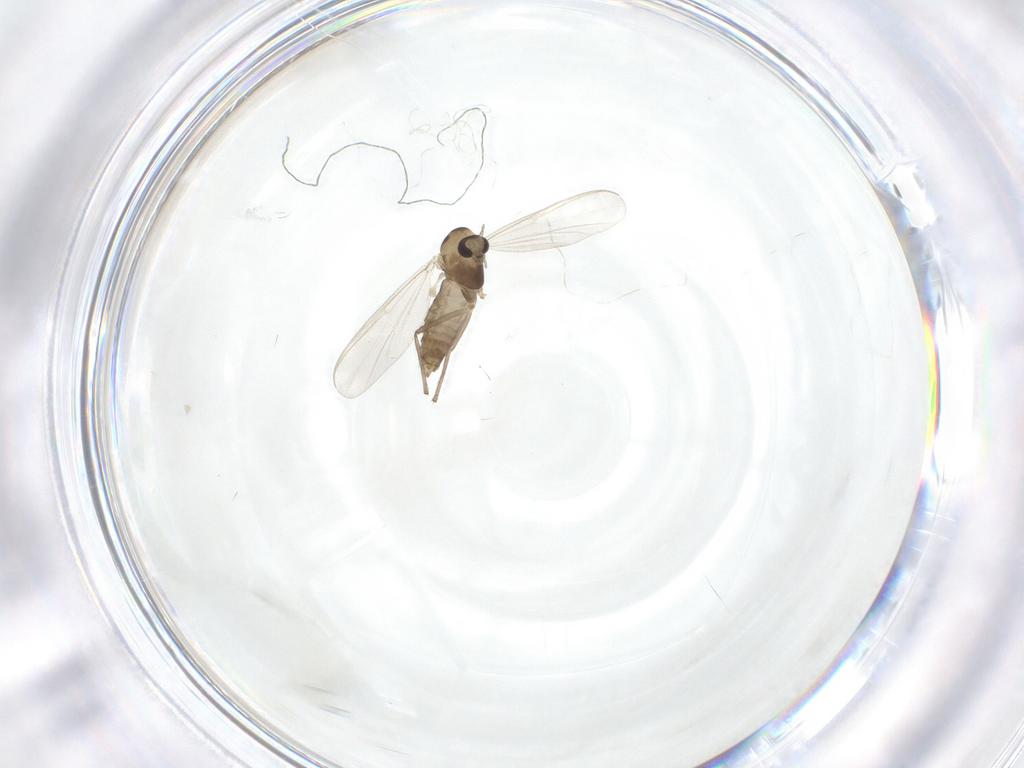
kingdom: Animalia
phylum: Arthropoda
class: Insecta
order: Diptera
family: Chironomidae
